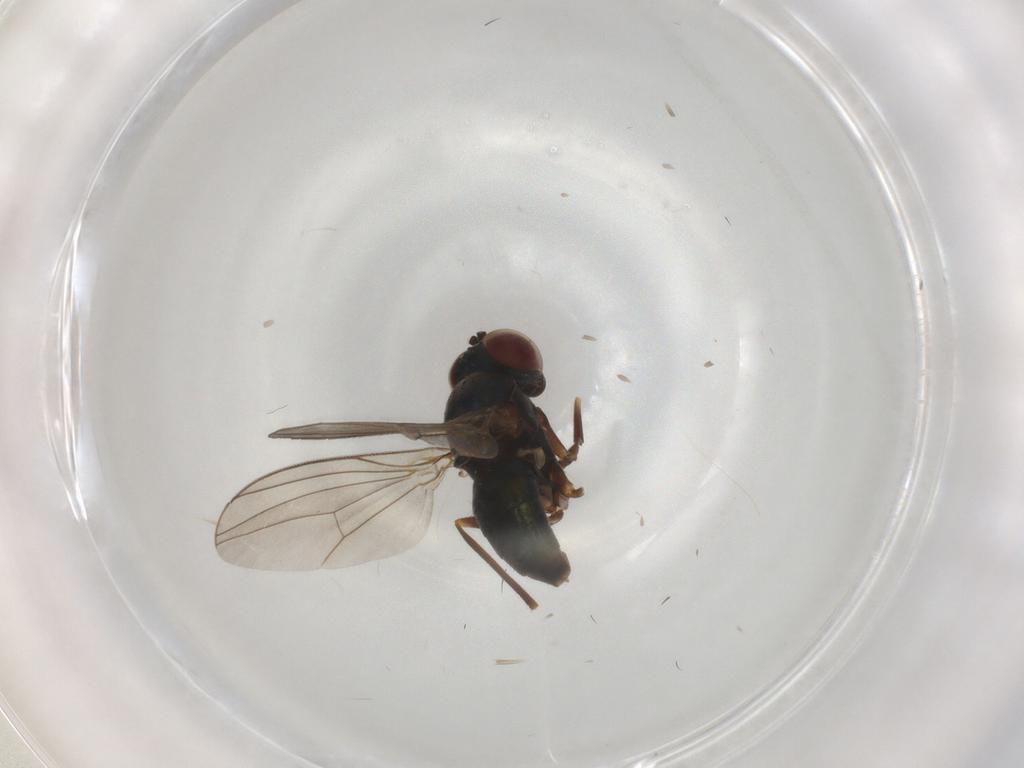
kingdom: Animalia
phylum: Arthropoda
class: Insecta
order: Diptera
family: Dolichopodidae
